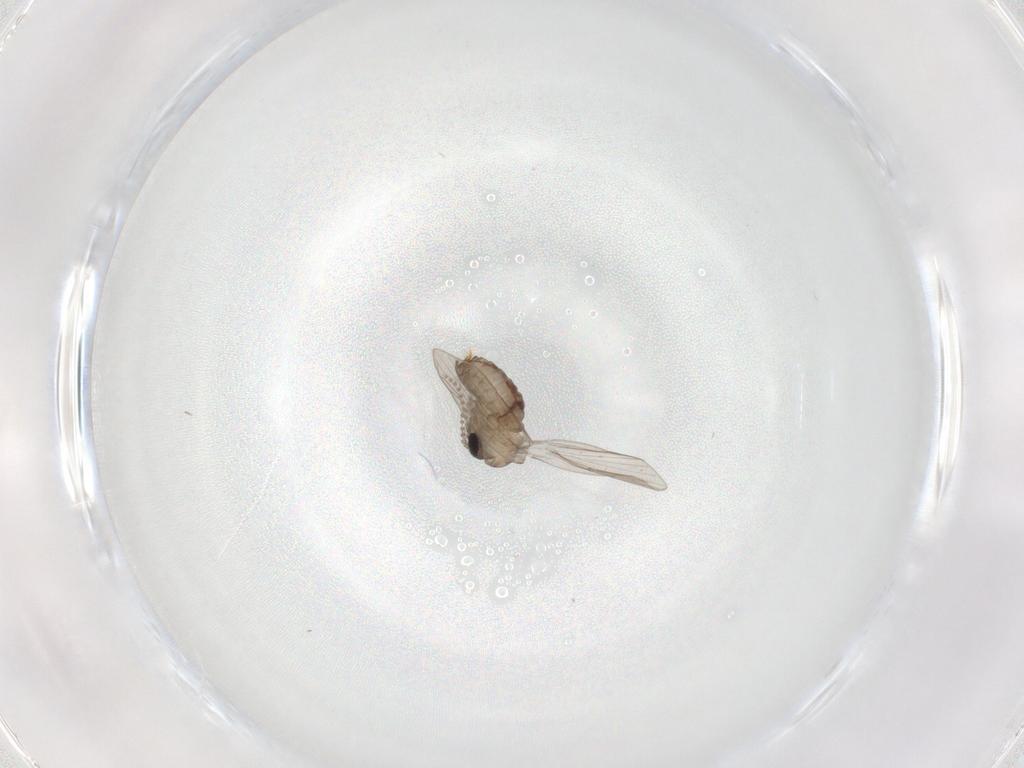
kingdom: Animalia
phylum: Arthropoda
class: Insecta
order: Diptera
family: Psychodidae
